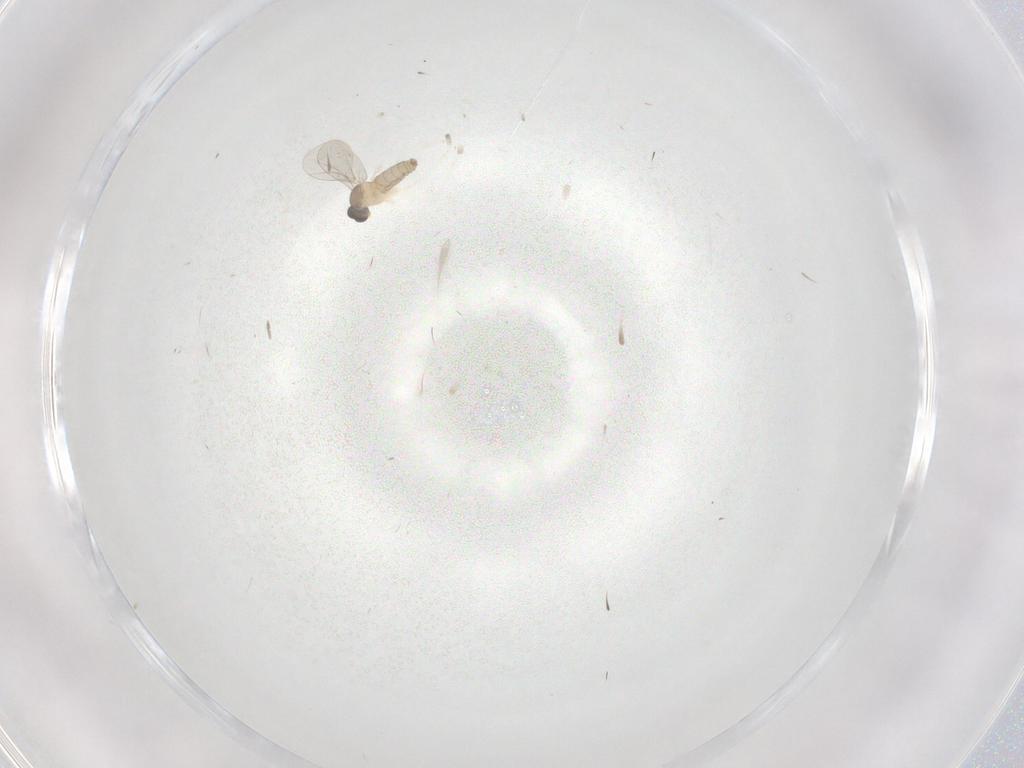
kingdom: Animalia
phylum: Arthropoda
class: Insecta
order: Diptera
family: Cecidomyiidae
